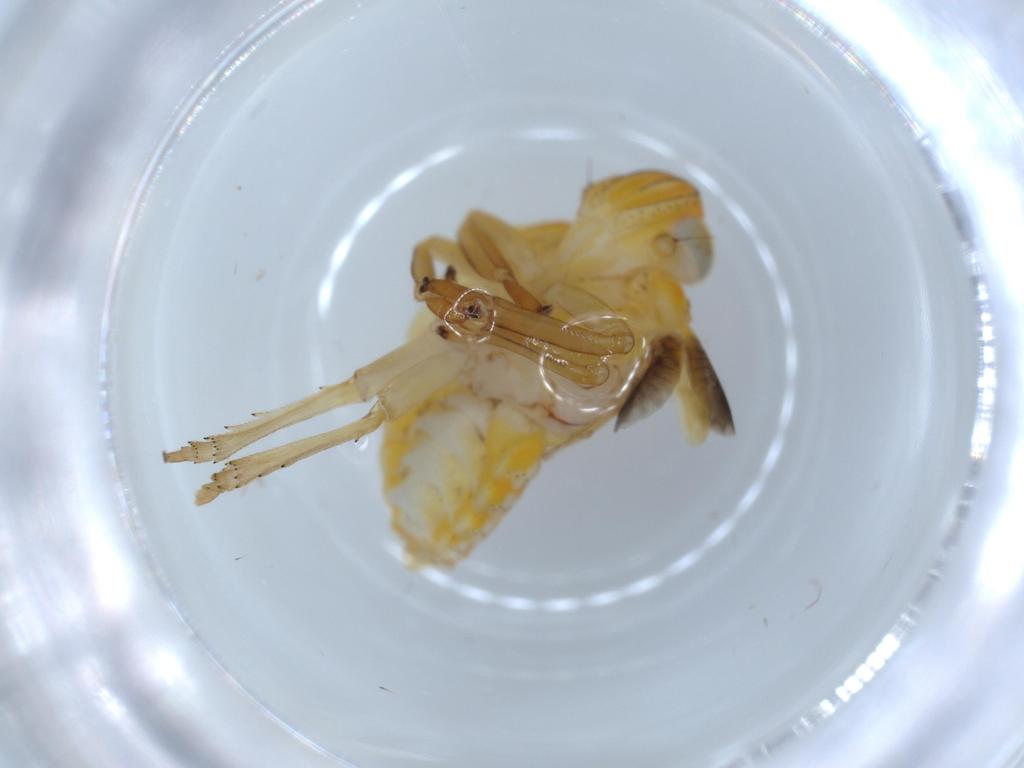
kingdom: Animalia
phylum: Arthropoda
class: Insecta
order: Hemiptera
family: Issidae
